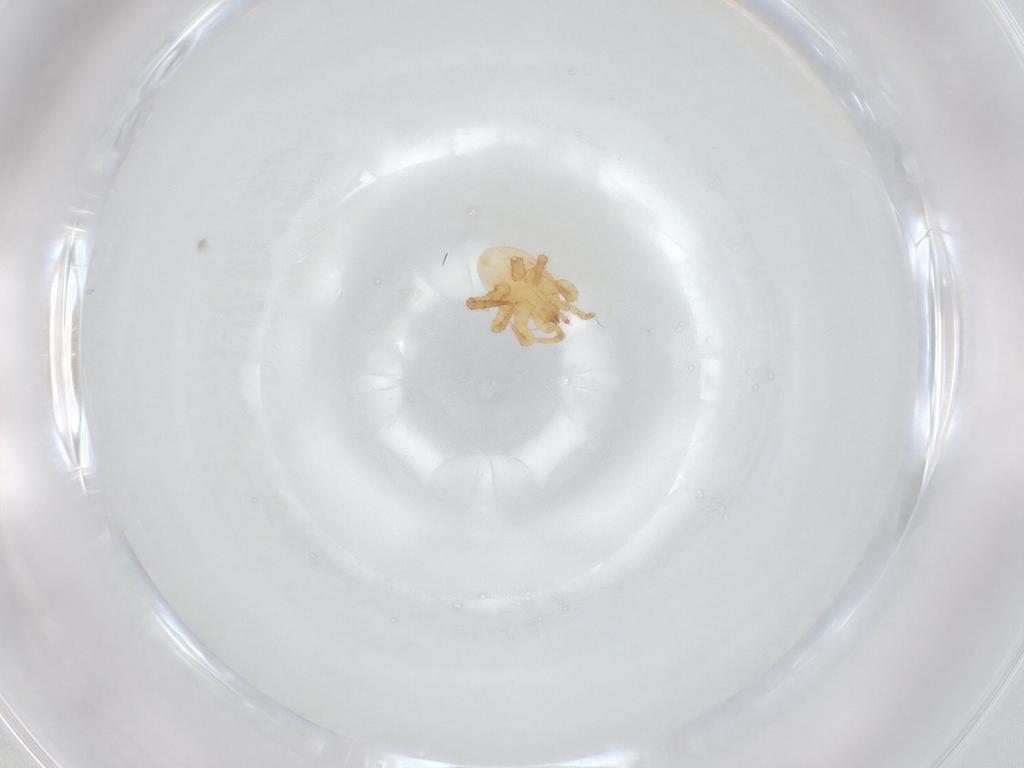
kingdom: Animalia
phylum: Arthropoda
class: Arachnida
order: Mesostigmata
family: Parasitidae
